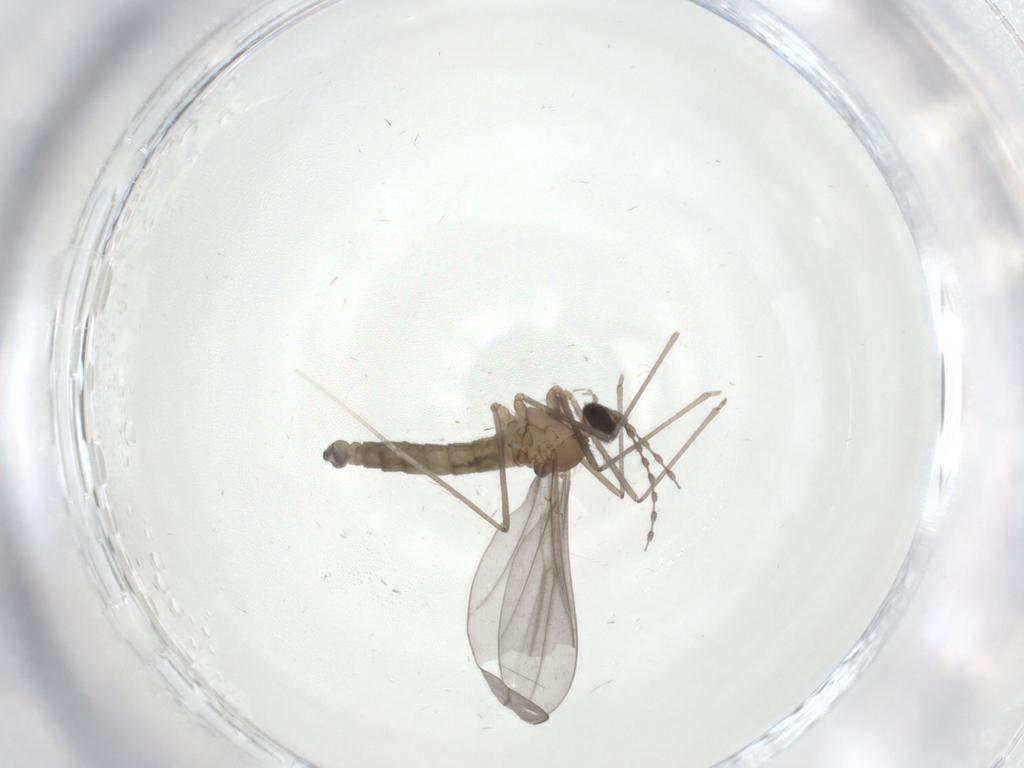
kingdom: Animalia
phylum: Arthropoda
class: Insecta
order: Diptera
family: Cecidomyiidae
